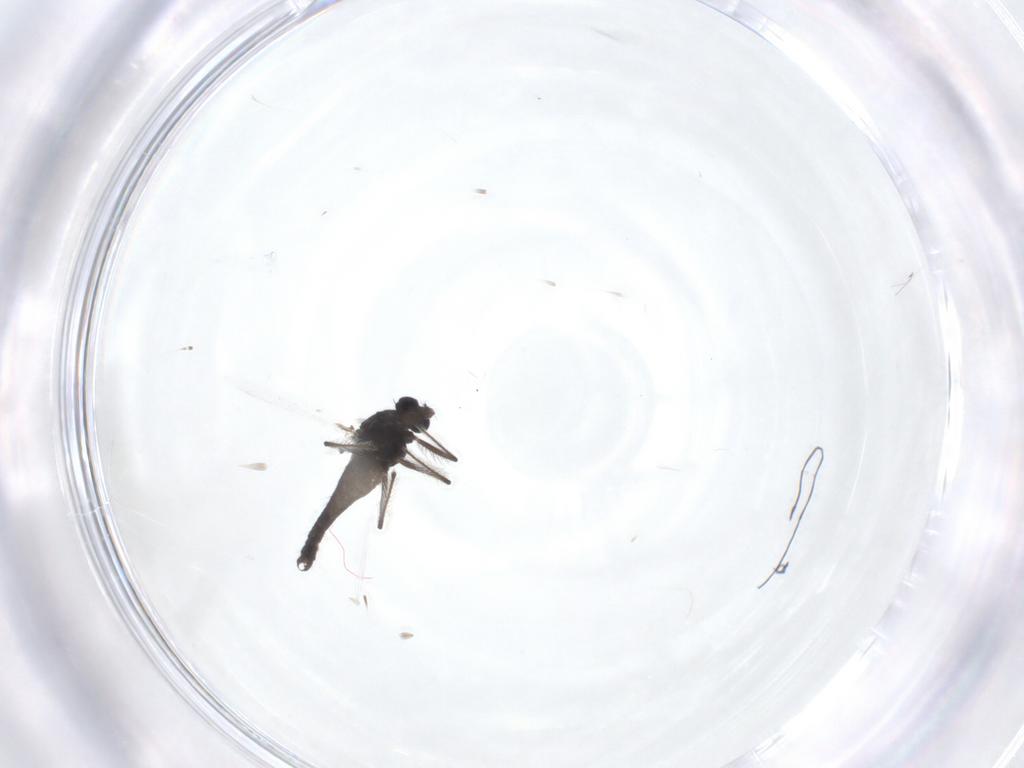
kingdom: Animalia
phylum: Arthropoda
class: Insecta
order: Diptera
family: Chironomidae
